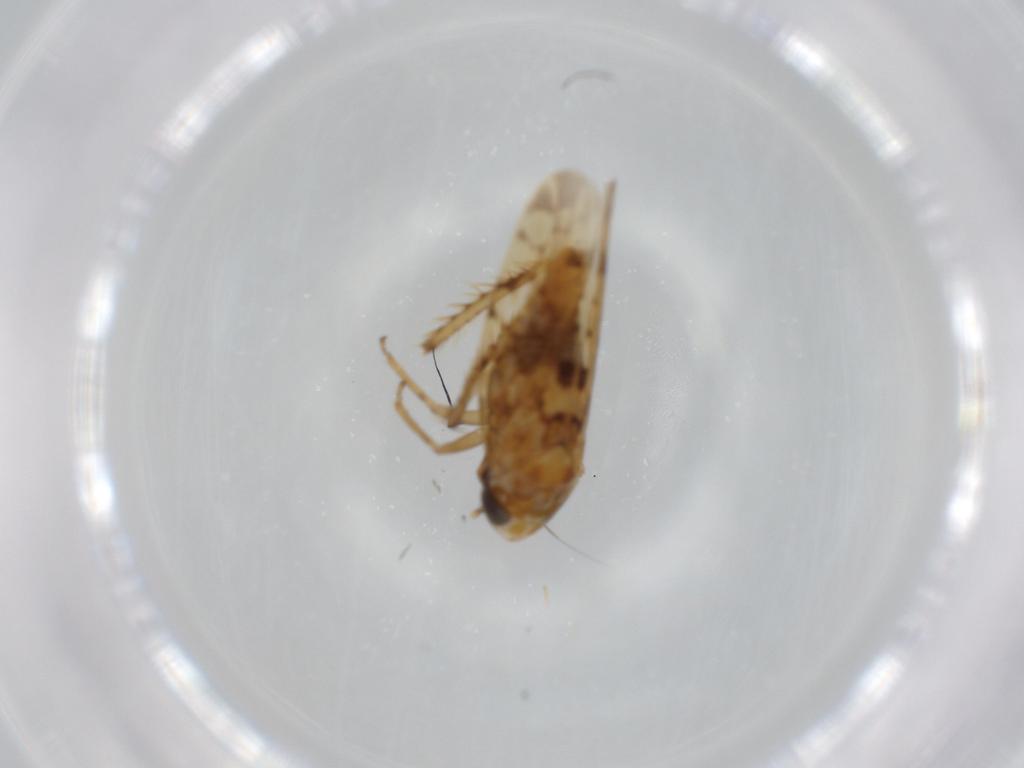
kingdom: Animalia
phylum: Arthropoda
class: Insecta
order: Hemiptera
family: Cicadellidae
